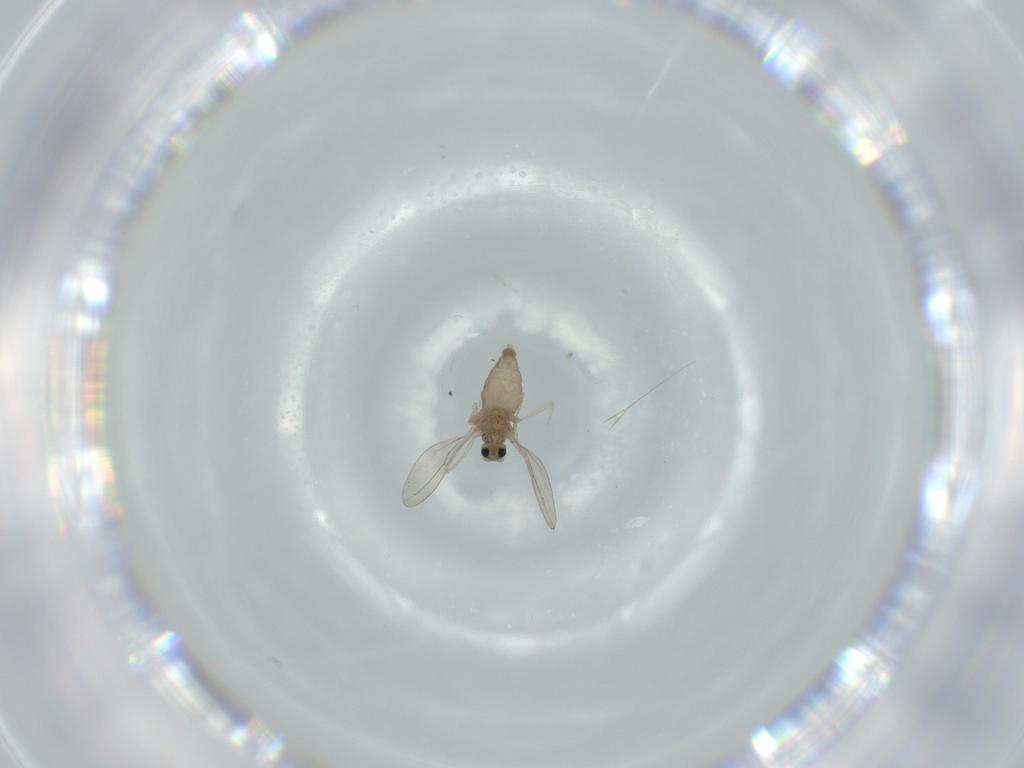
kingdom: Animalia
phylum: Arthropoda
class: Insecta
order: Diptera
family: Cecidomyiidae
